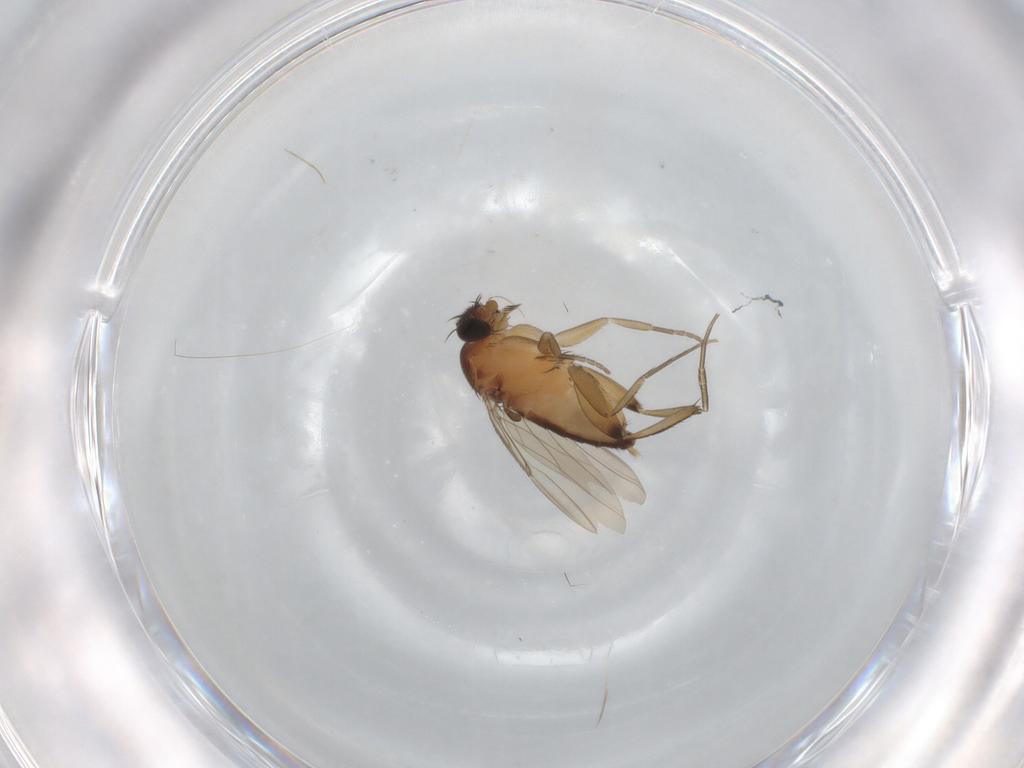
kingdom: Animalia
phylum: Arthropoda
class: Insecta
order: Diptera
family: Phoridae
